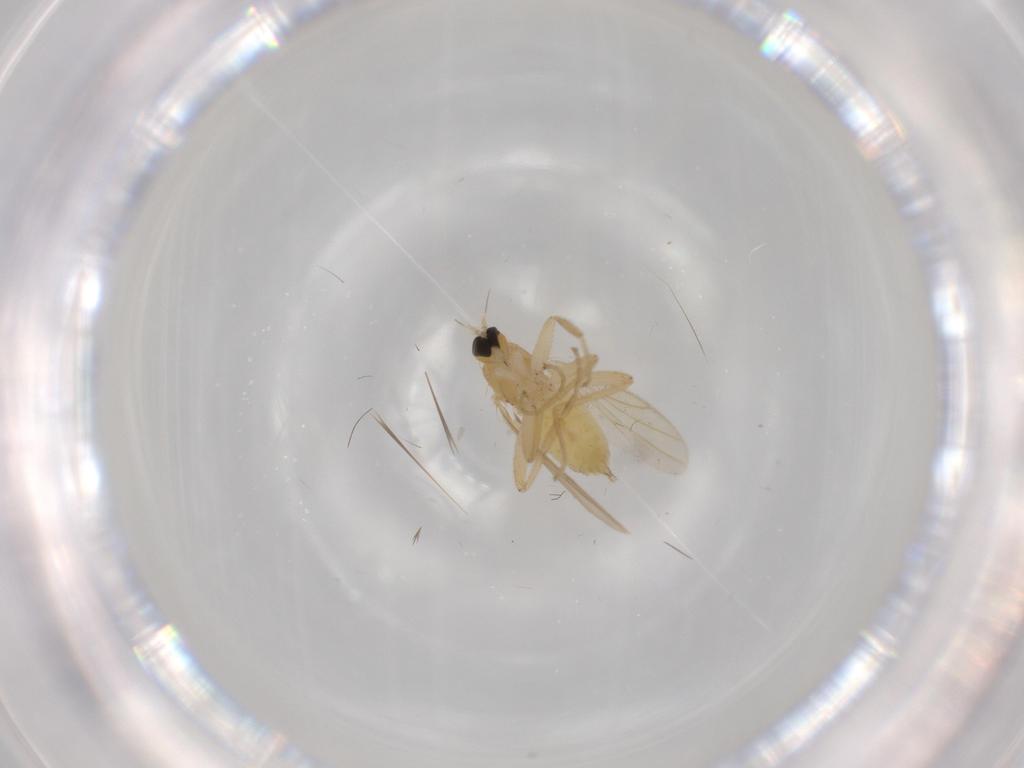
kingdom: Animalia
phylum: Arthropoda
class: Insecta
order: Diptera
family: Hybotidae
